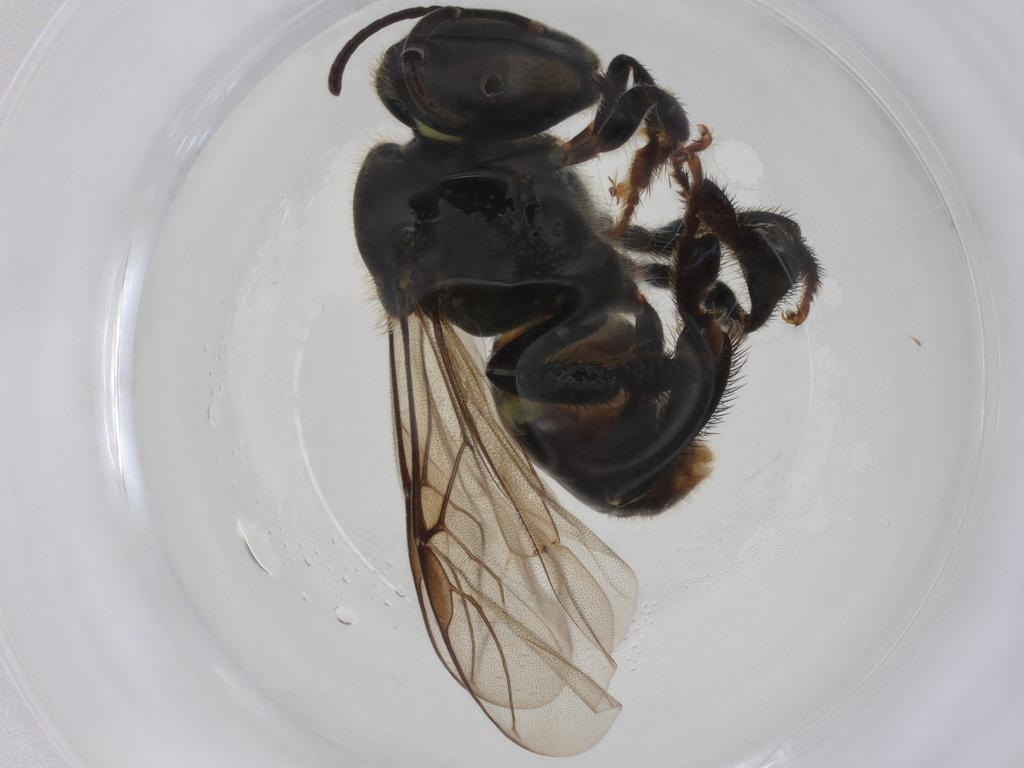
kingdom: Animalia
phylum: Arthropoda
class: Insecta
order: Hymenoptera
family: Apidae
